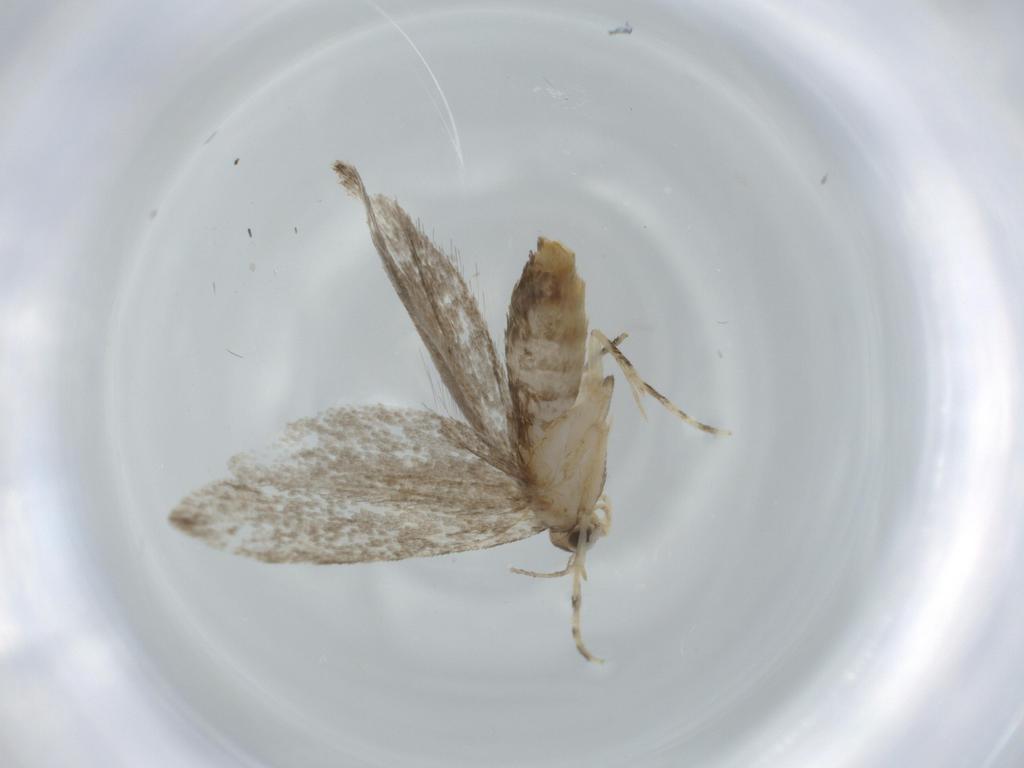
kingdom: Animalia
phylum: Arthropoda
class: Insecta
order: Lepidoptera
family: Tineidae
